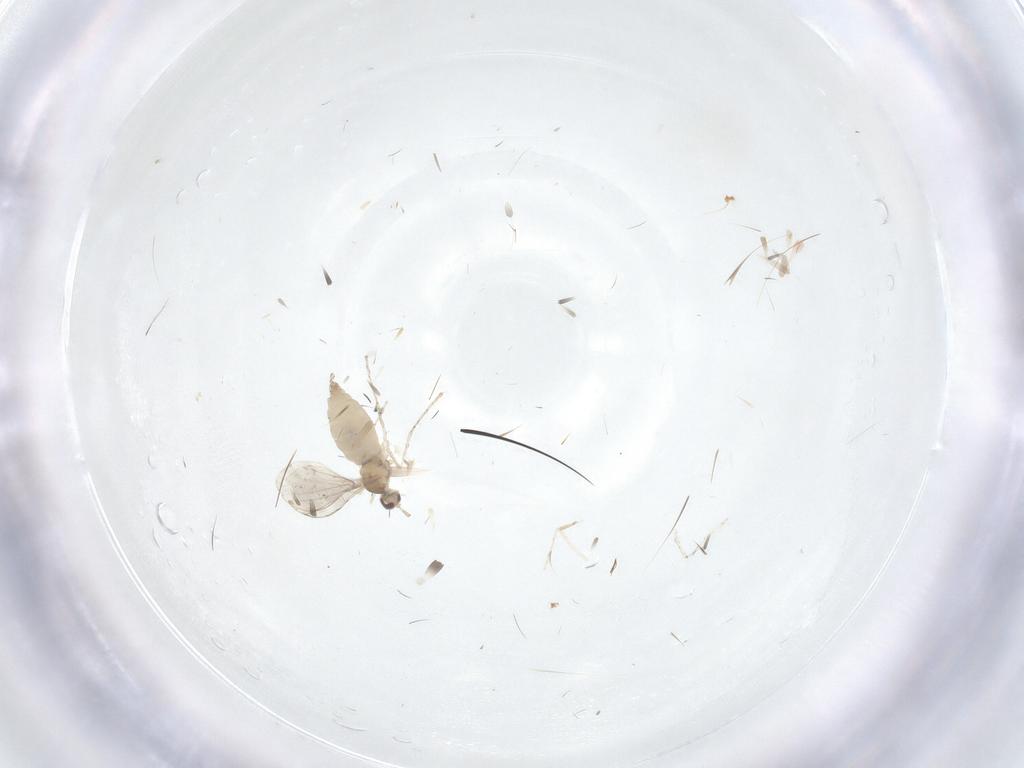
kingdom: Animalia
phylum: Arthropoda
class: Insecta
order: Diptera
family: Cecidomyiidae
